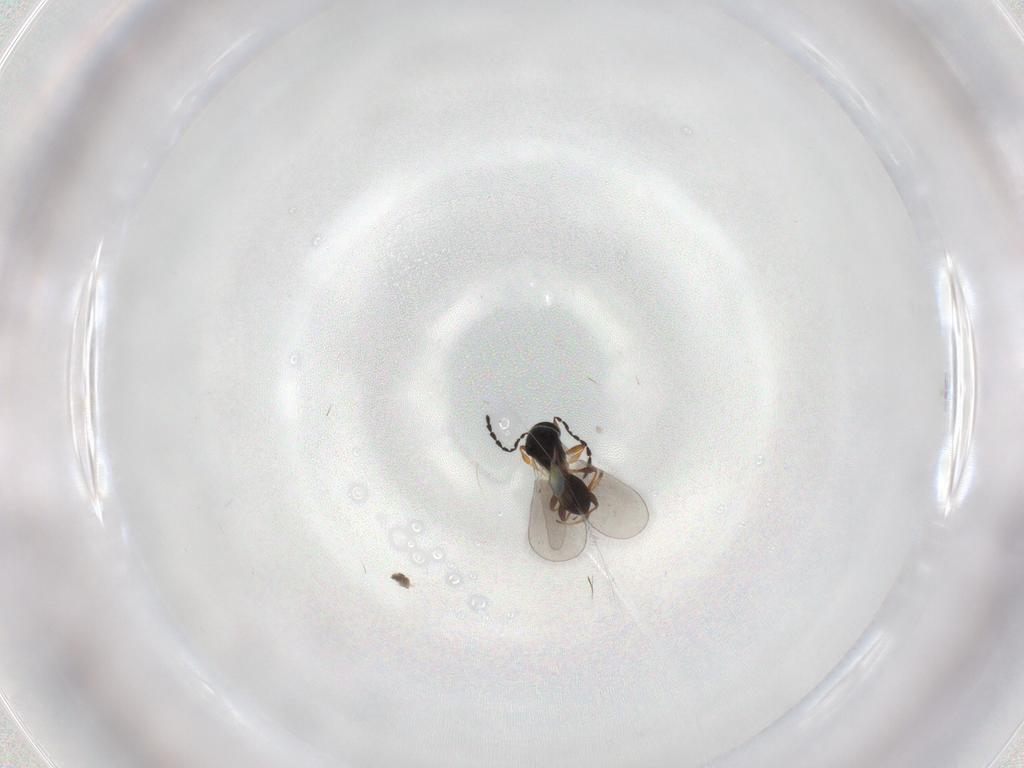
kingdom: Animalia
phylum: Arthropoda
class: Insecta
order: Hymenoptera
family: Platygastridae
